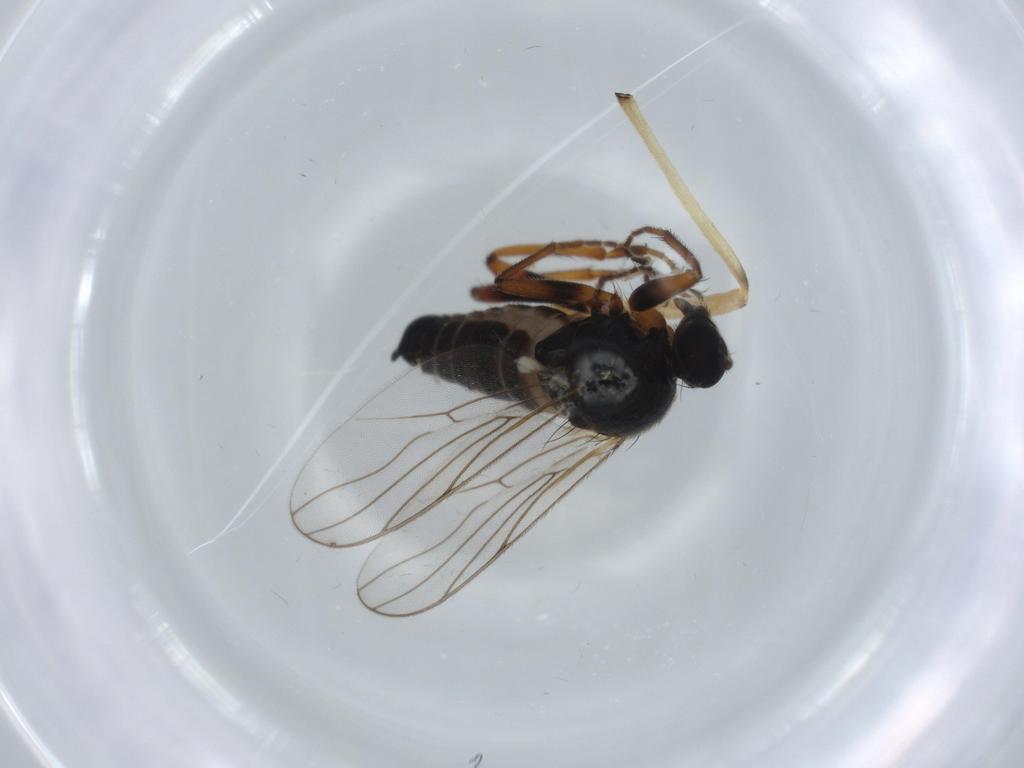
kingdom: Animalia
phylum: Arthropoda
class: Insecta
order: Diptera
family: Hybotidae
